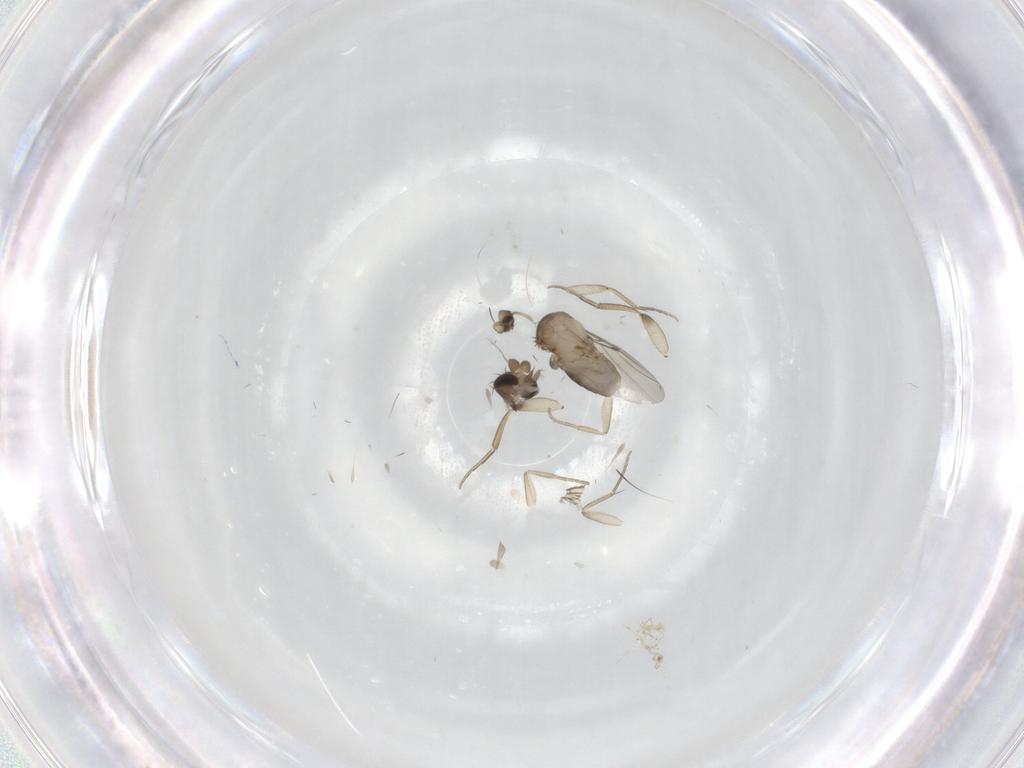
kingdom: Animalia
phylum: Arthropoda
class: Insecta
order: Diptera
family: Phoridae
